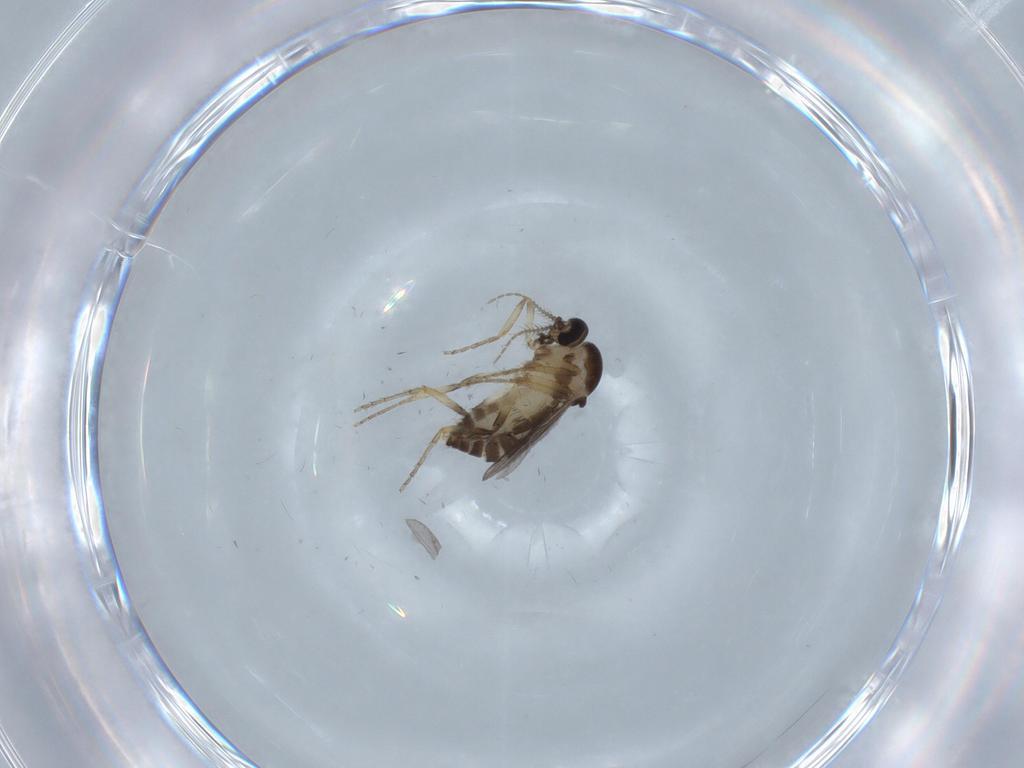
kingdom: Animalia
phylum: Arthropoda
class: Insecta
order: Diptera
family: Ceratopogonidae
